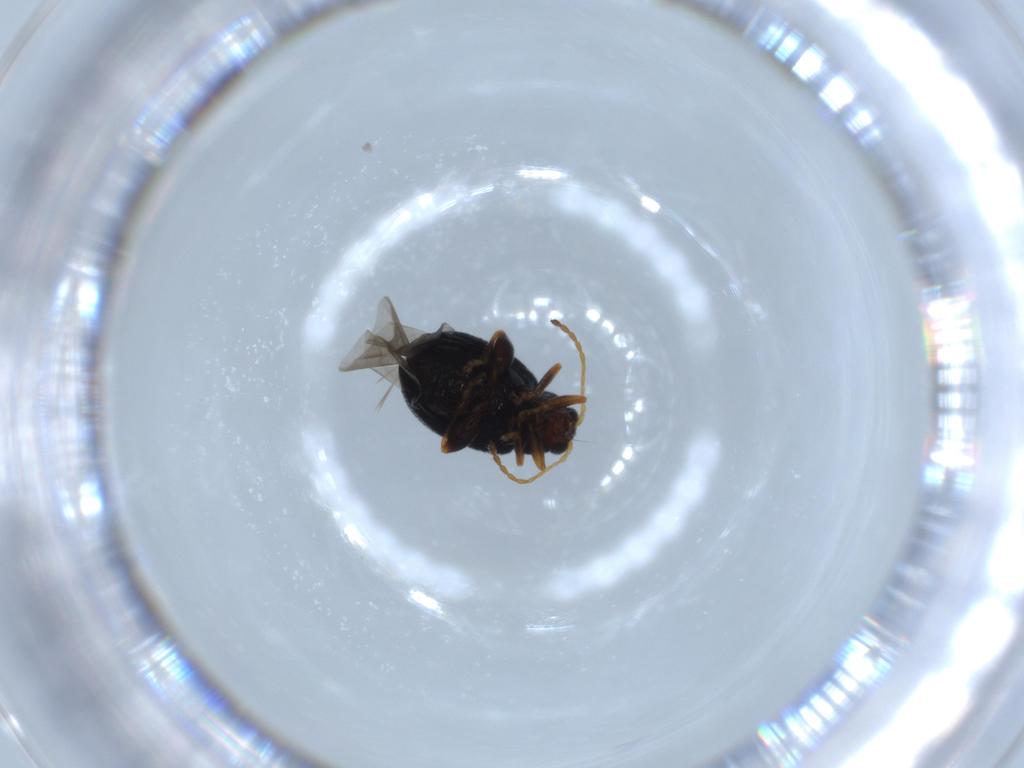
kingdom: Animalia
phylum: Arthropoda
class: Insecta
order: Coleoptera
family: Chrysomelidae
